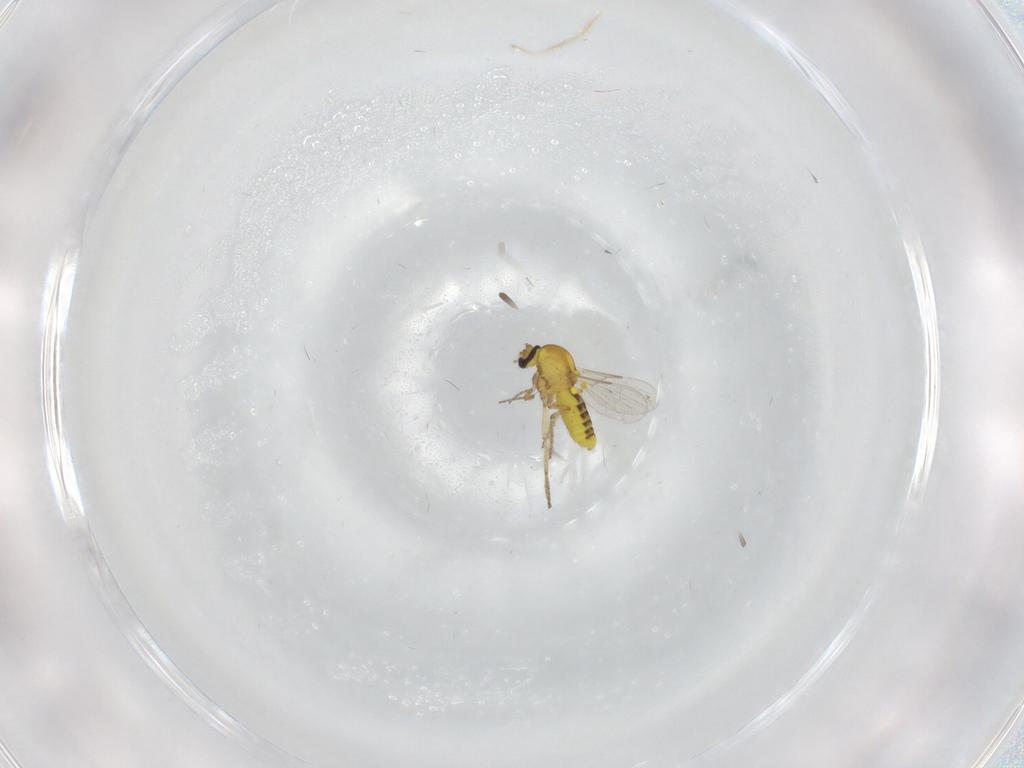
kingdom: Animalia
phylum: Arthropoda
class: Insecta
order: Diptera
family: Ceratopogonidae
